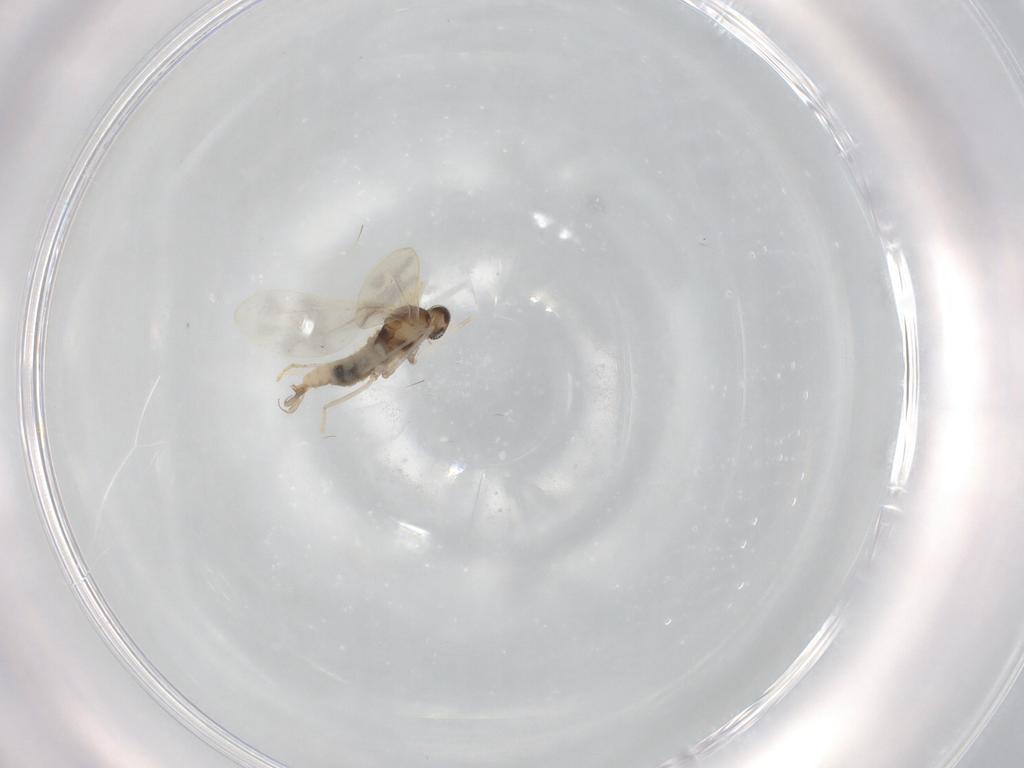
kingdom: Animalia
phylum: Arthropoda
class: Insecta
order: Diptera
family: Cecidomyiidae
